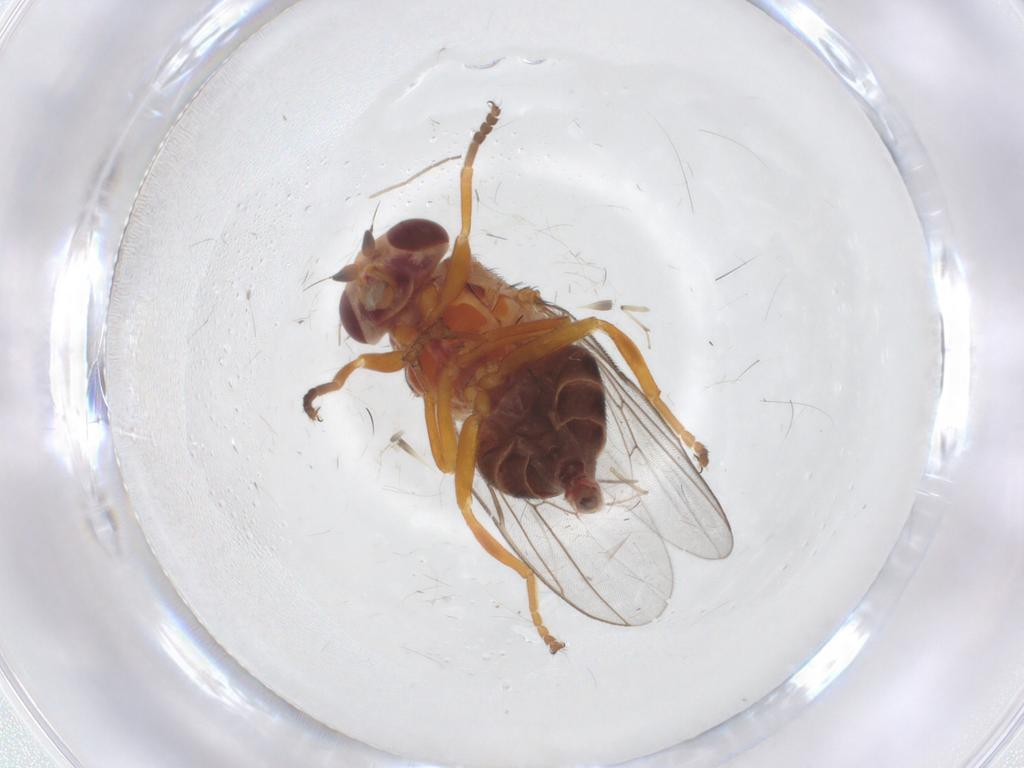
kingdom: Animalia
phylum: Arthropoda
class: Insecta
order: Diptera
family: Chloropidae
